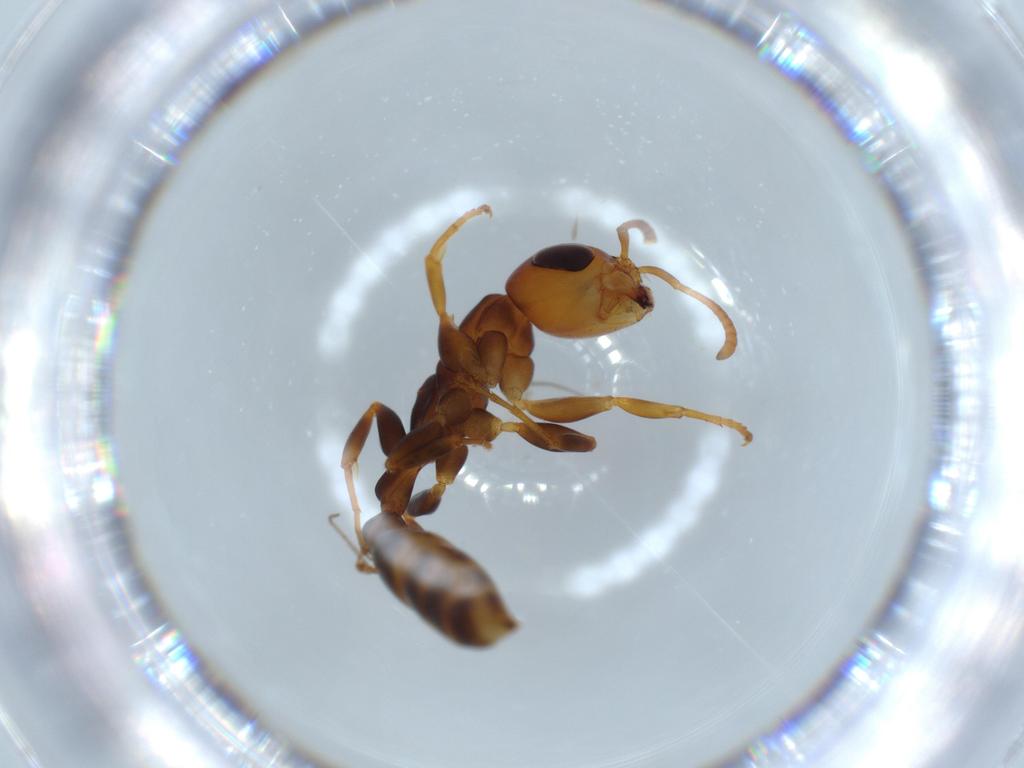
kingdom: Animalia
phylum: Arthropoda
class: Insecta
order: Hymenoptera
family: Formicidae
